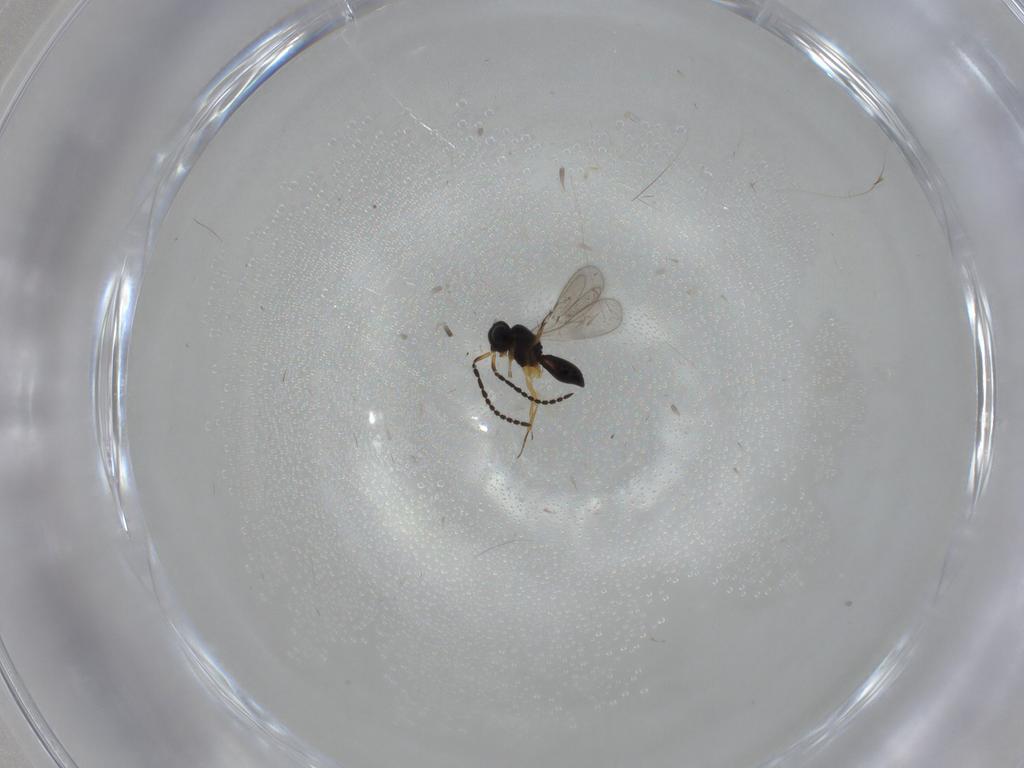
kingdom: Animalia
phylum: Arthropoda
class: Insecta
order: Hymenoptera
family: Scelionidae
